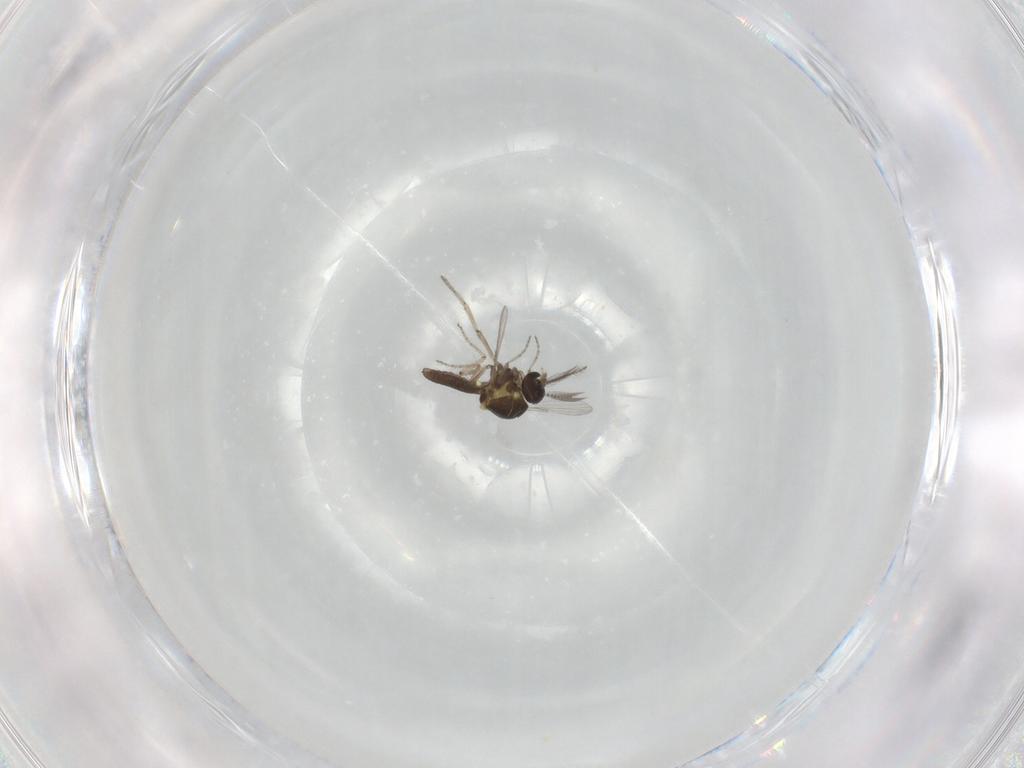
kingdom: Animalia
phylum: Arthropoda
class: Insecta
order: Diptera
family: Ceratopogonidae
